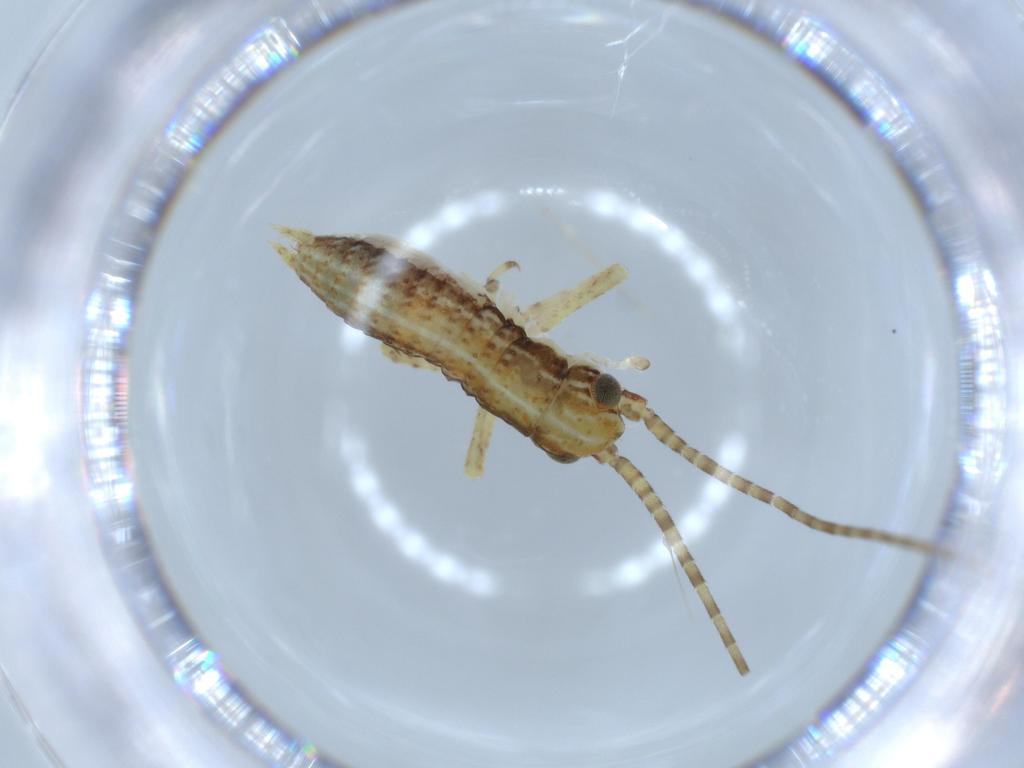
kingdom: Animalia
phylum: Arthropoda
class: Insecta
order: Orthoptera
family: Gryllidae
